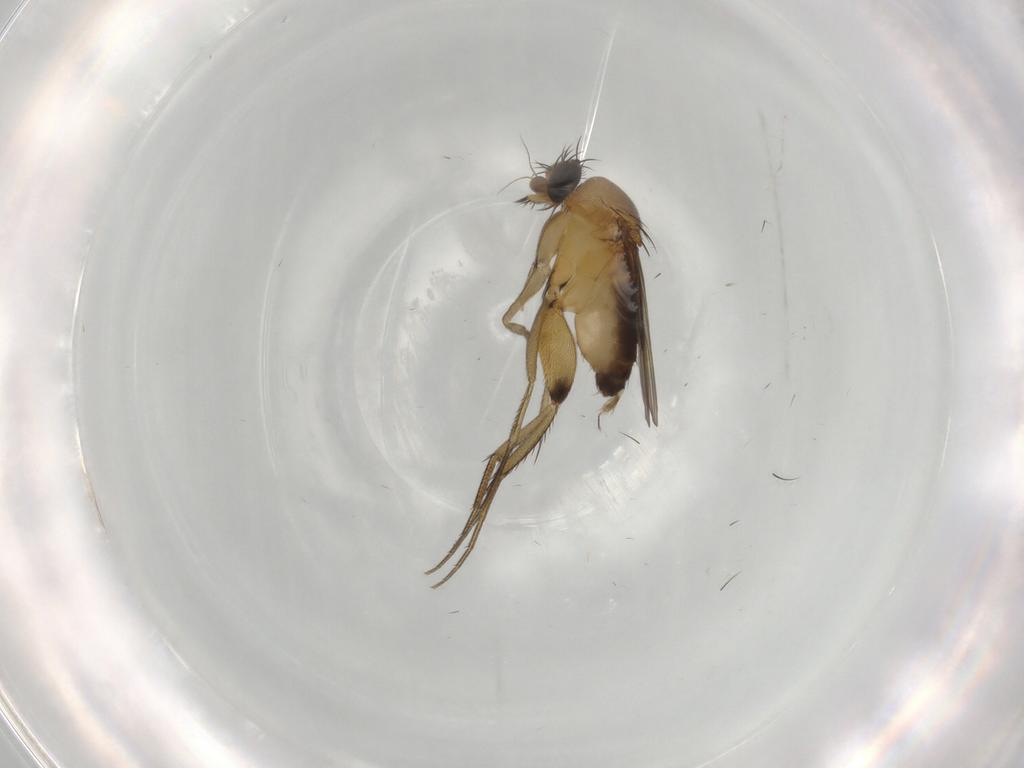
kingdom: Animalia
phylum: Arthropoda
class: Insecta
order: Diptera
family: Phoridae
